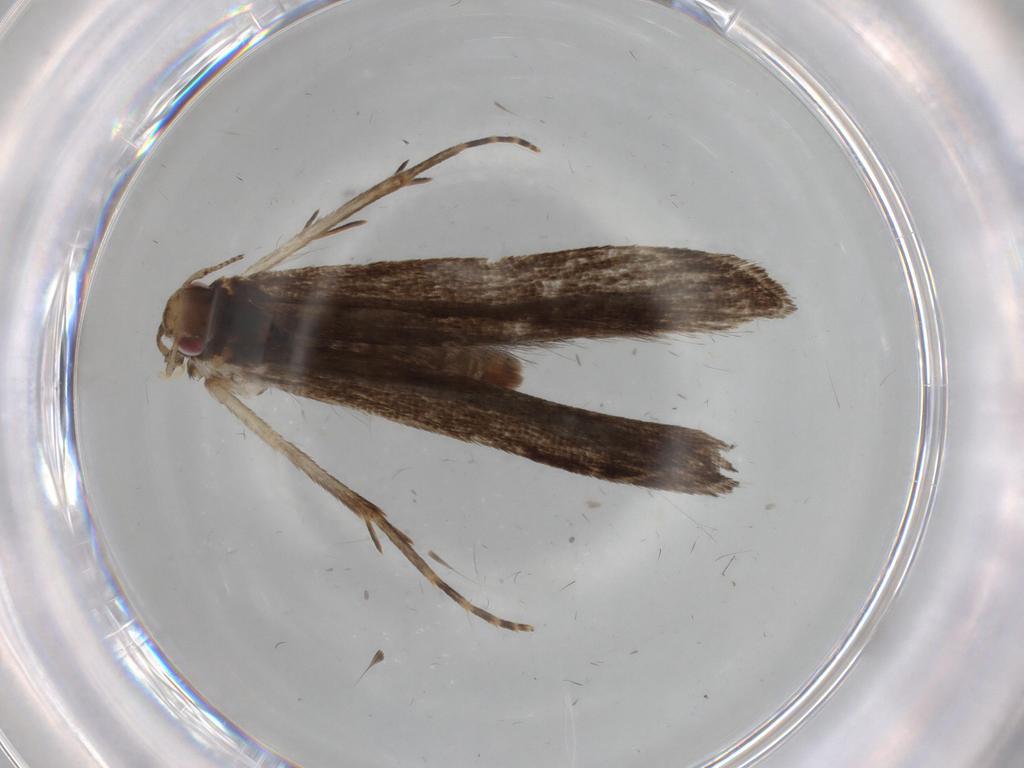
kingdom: Animalia
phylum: Arthropoda
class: Insecta
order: Lepidoptera
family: Gelechiidae
